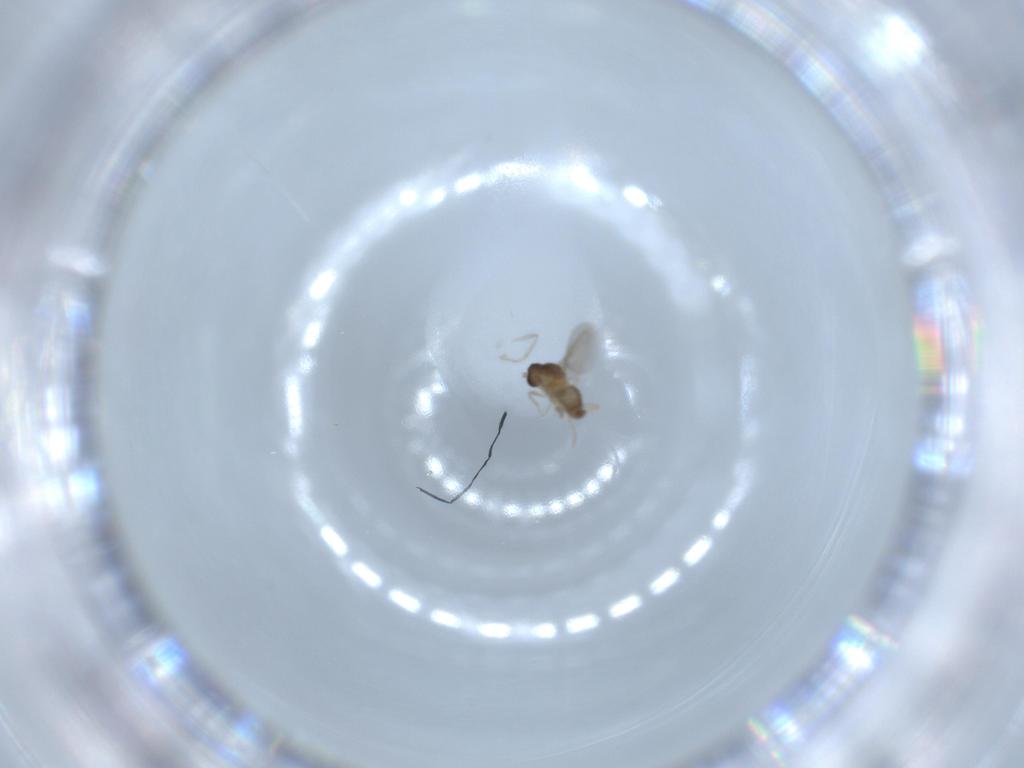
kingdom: Animalia
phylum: Arthropoda
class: Insecta
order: Diptera
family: Cecidomyiidae
